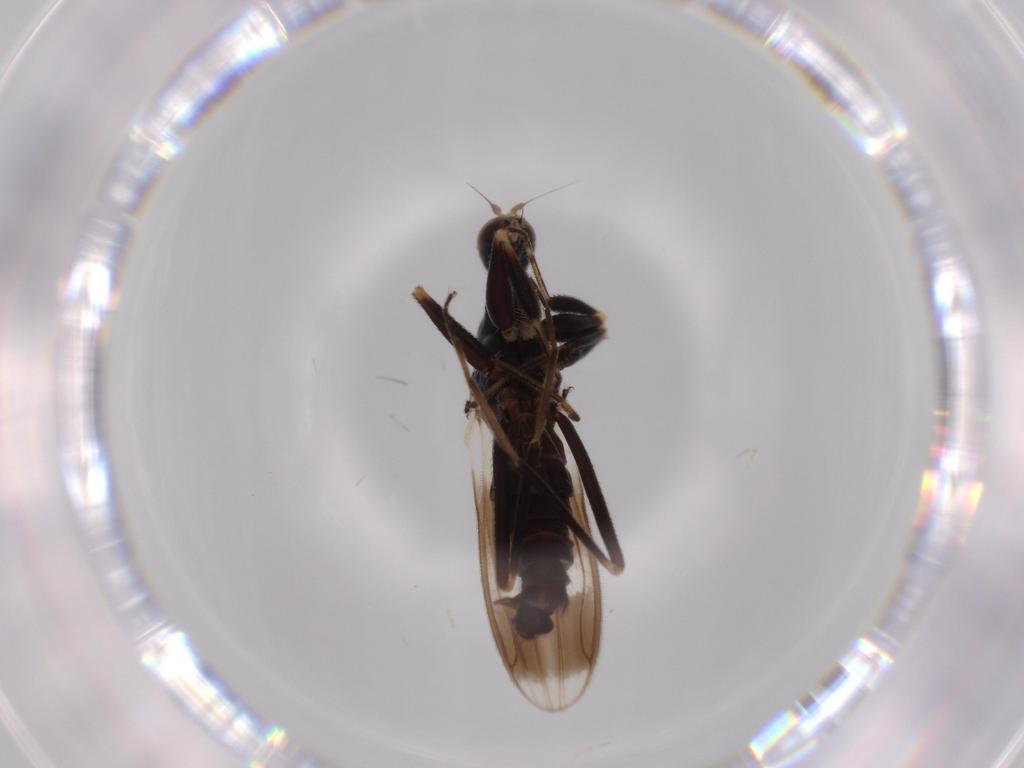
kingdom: Animalia
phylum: Arthropoda
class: Insecta
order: Diptera
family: Hybotidae
